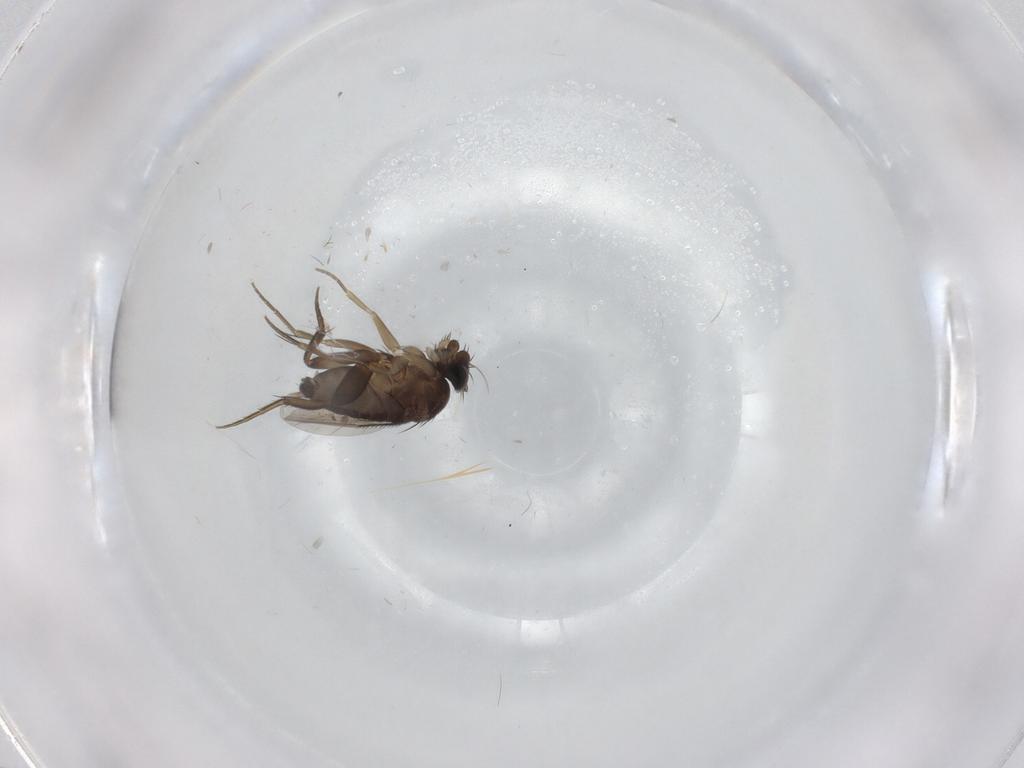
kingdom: Animalia
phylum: Arthropoda
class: Insecta
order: Diptera
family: Phoridae
